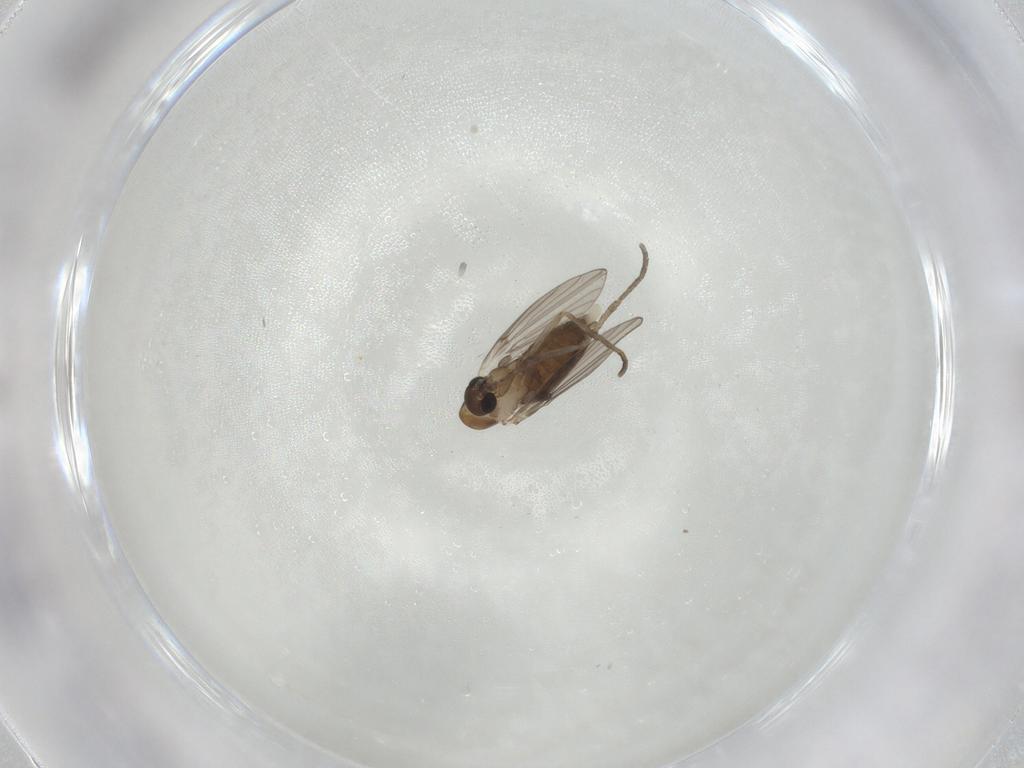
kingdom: Animalia
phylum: Arthropoda
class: Insecta
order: Diptera
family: Sciaridae
